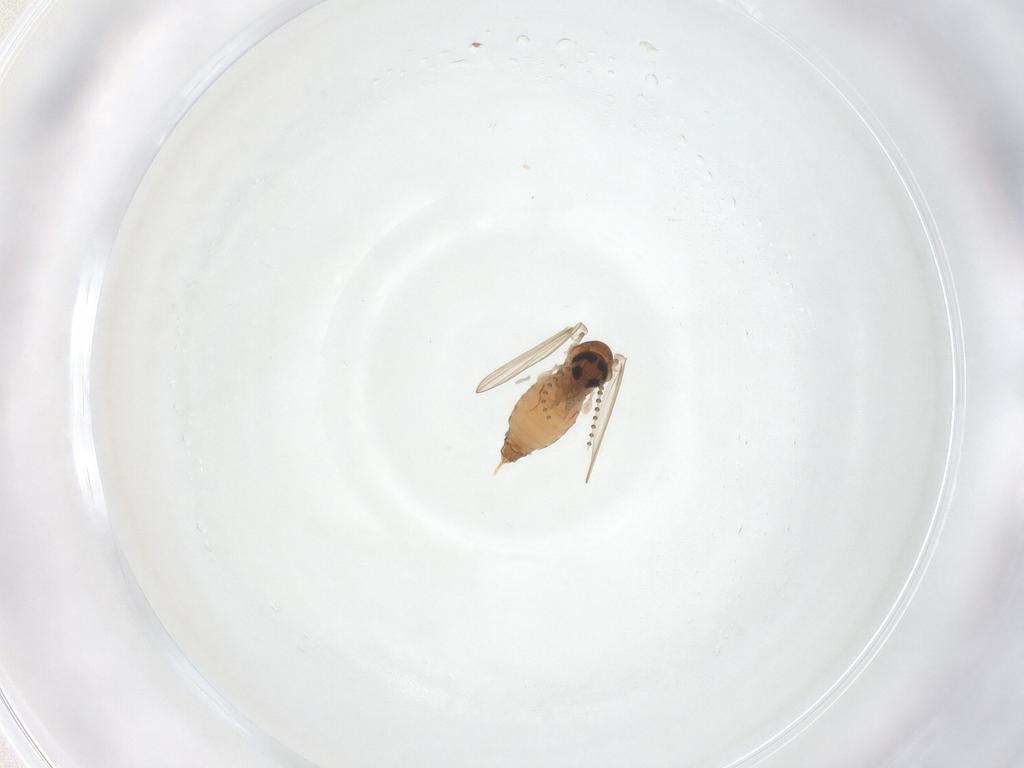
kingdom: Animalia
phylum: Arthropoda
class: Insecta
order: Diptera
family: Psychodidae
